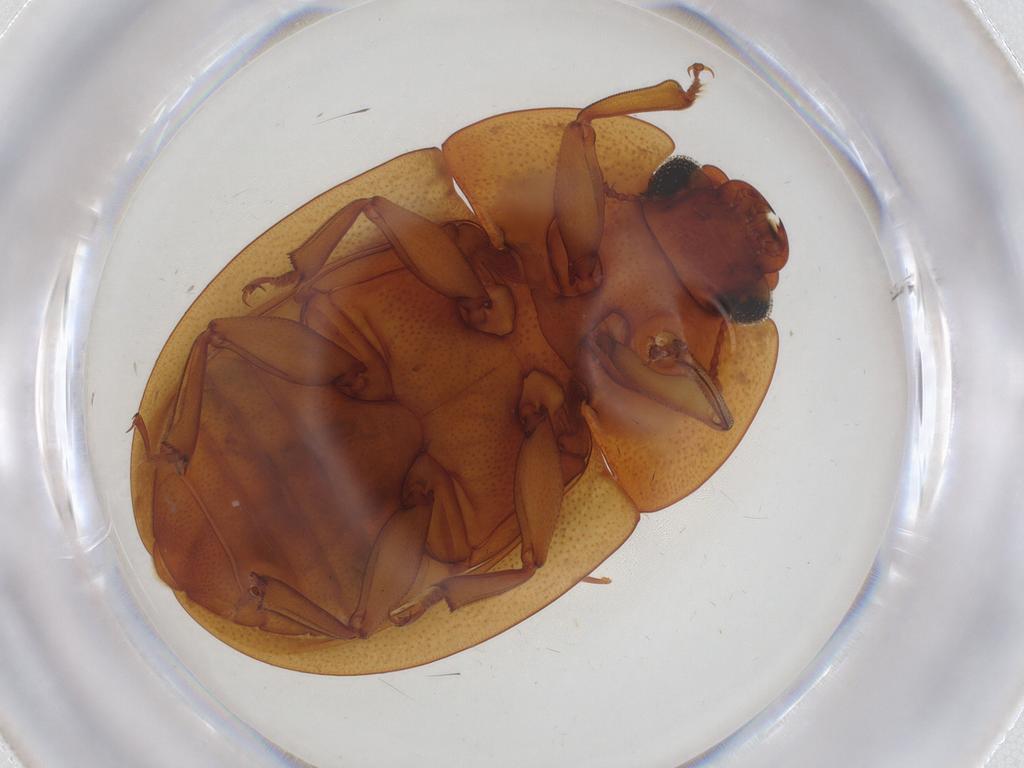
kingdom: Animalia
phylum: Arthropoda
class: Insecta
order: Coleoptera
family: Nitidulidae
